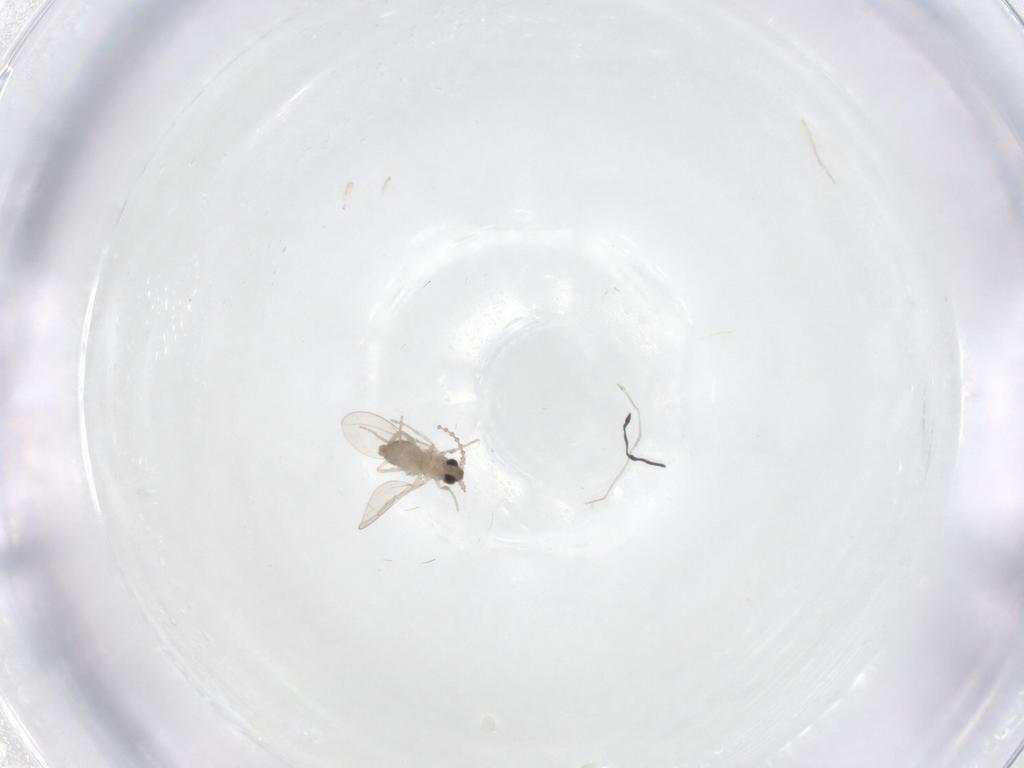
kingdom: Animalia
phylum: Arthropoda
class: Insecta
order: Diptera
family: Cecidomyiidae
